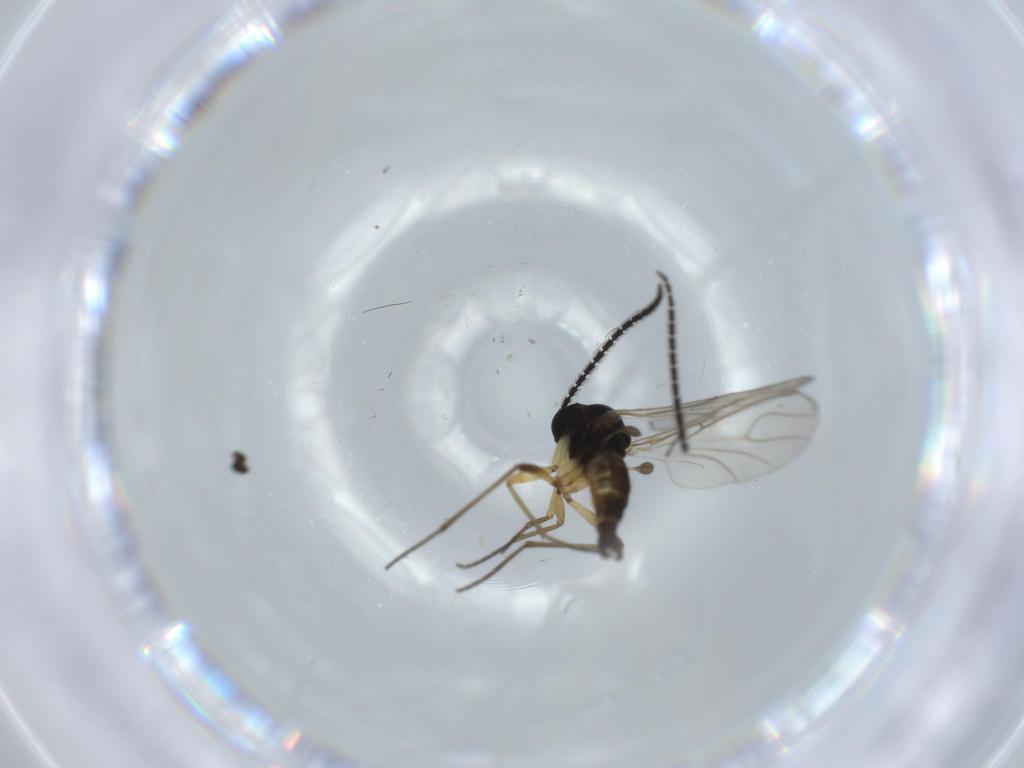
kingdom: Animalia
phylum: Arthropoda
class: Insecta
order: Diptera
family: Sciaridae
